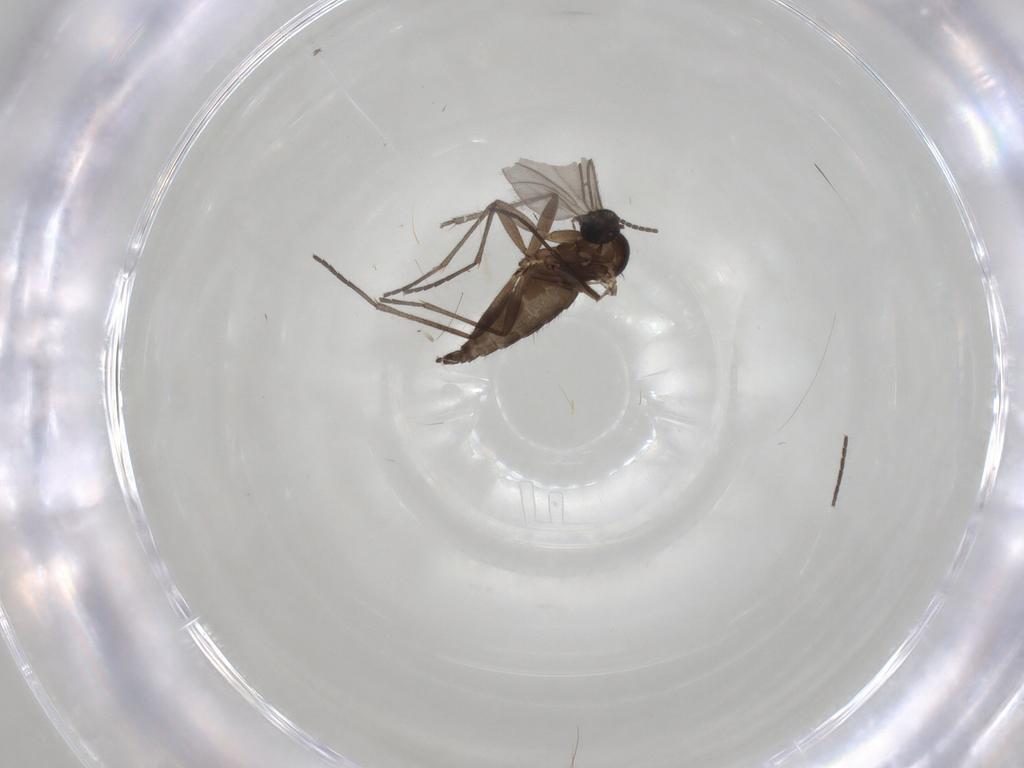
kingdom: Animalia
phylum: Arthropoda
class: Insecta
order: Diptera
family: Sciaridae
